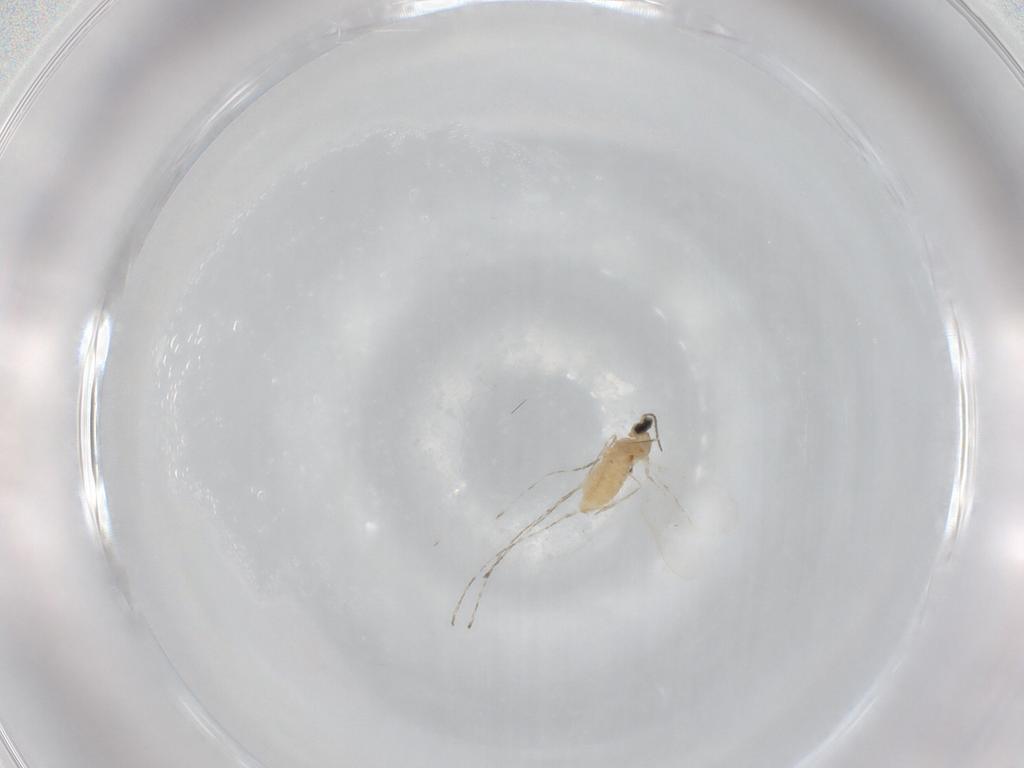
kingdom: Animalia
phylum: Arthropoda
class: Insecta
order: Diptera
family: Cecidomyiidae
